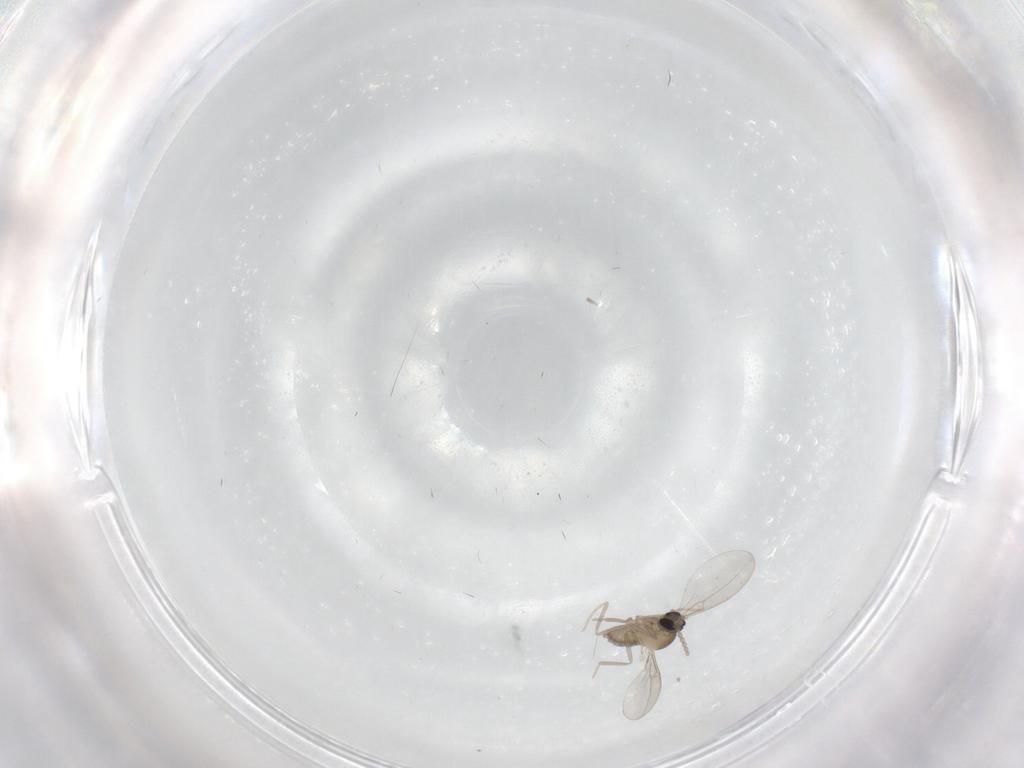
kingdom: Animalia
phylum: Arthropoda
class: Insecta
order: Diptera
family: Cecidomyiidae
